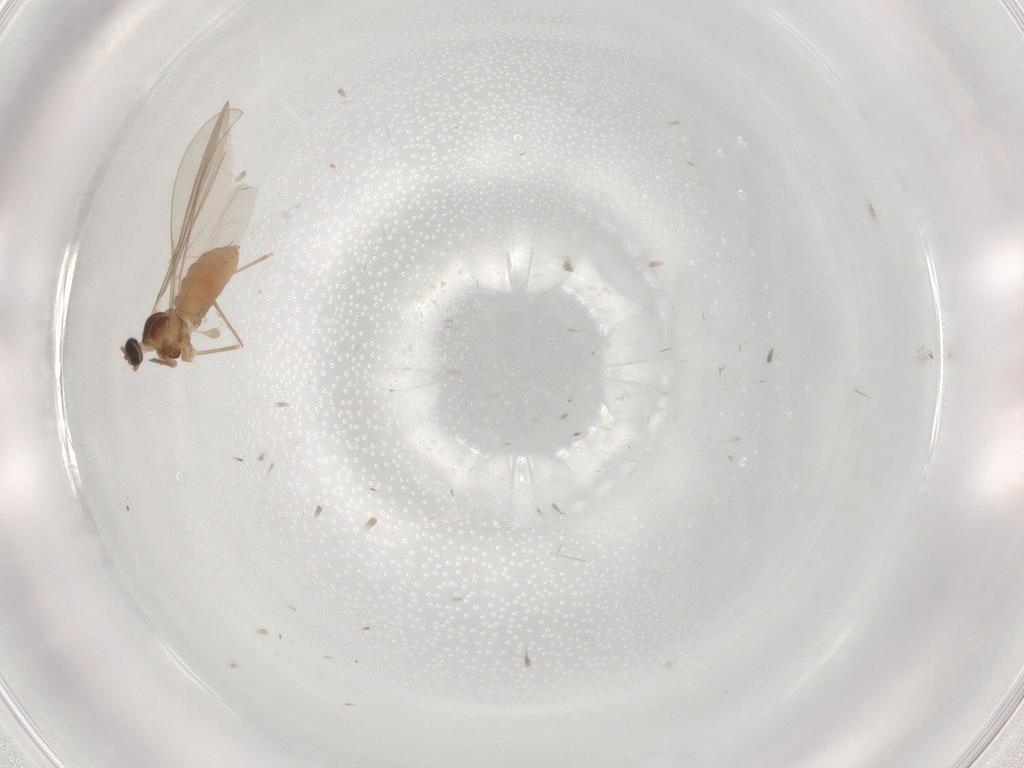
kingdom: Animalia
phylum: Arthropoda
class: Insecta
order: Diptera
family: Cecidomyiidae
